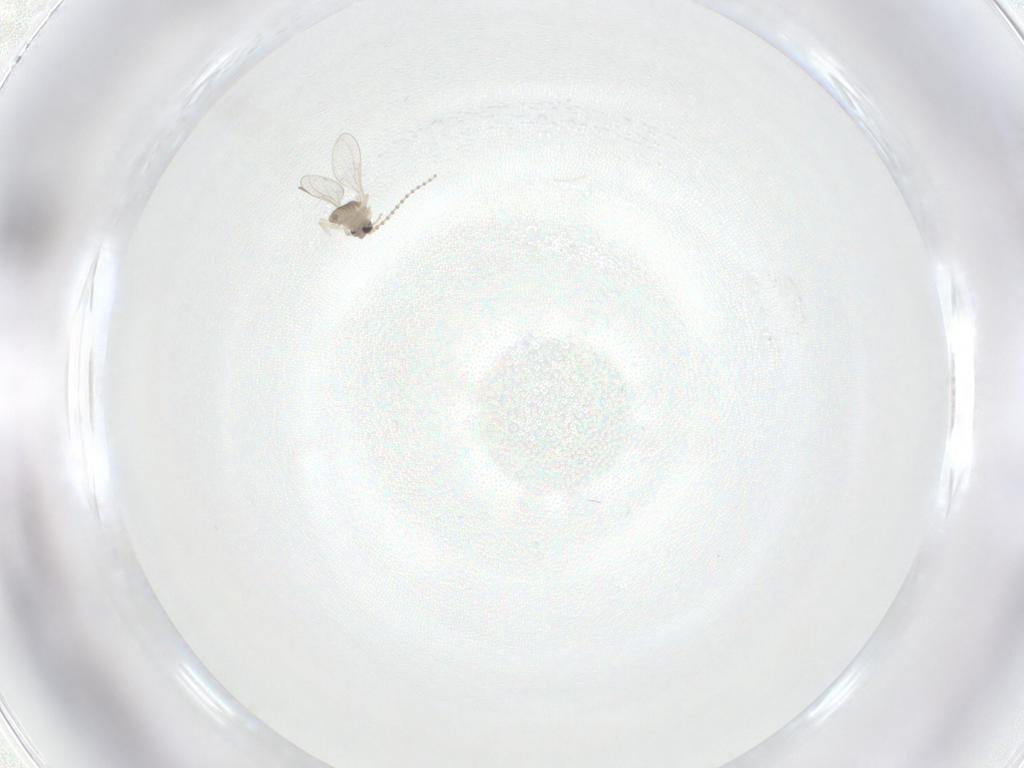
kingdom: Animalia
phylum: Arthropoda
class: Insecta
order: Diptera
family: Cecidomyiidae
